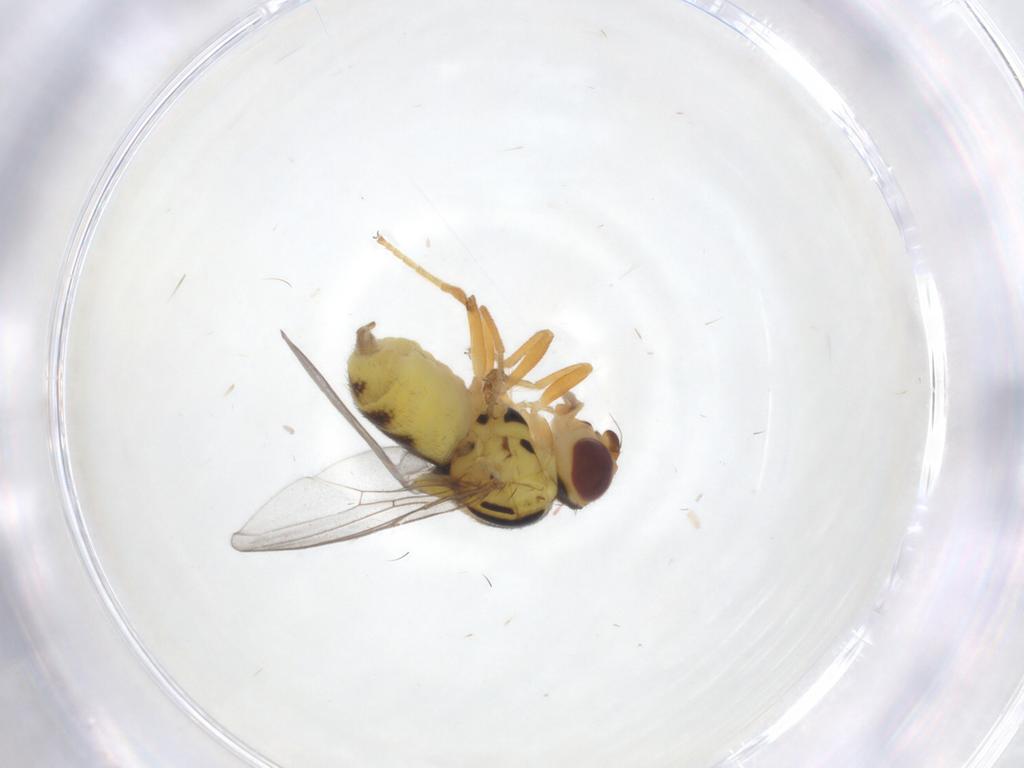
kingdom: Animalia
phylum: Arthropoda
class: Insecta
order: Diptera
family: Chloropidae
